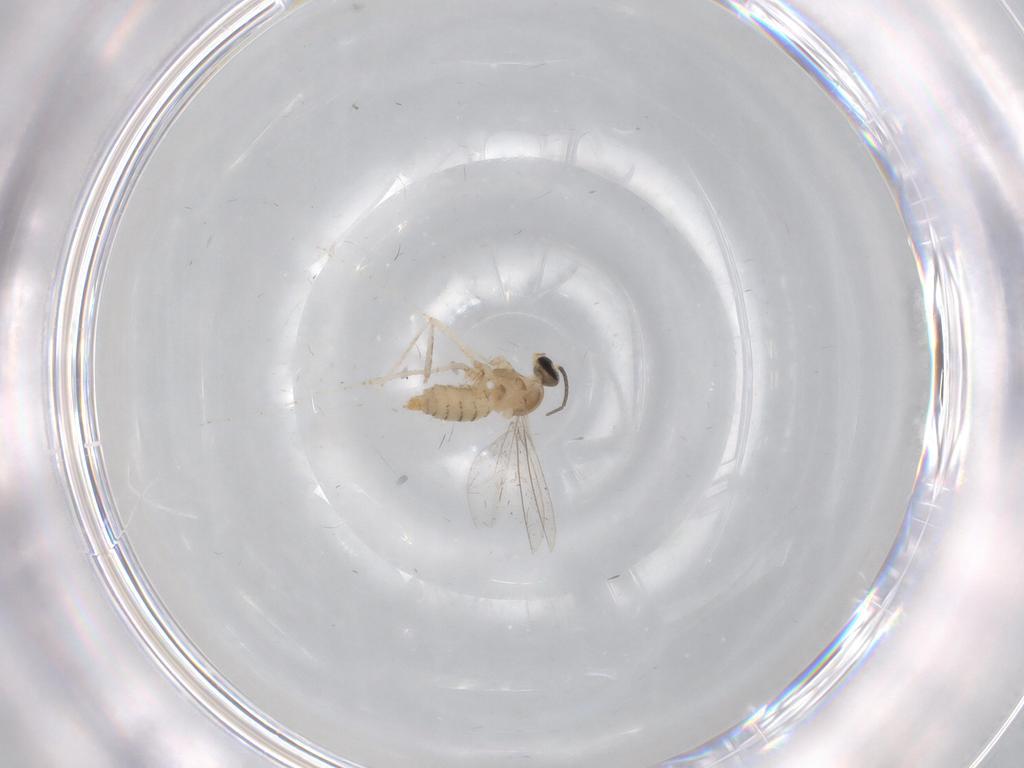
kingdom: Animalia
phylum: Arthropoda
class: Insecta
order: Diptera
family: Cecidomyiidae
